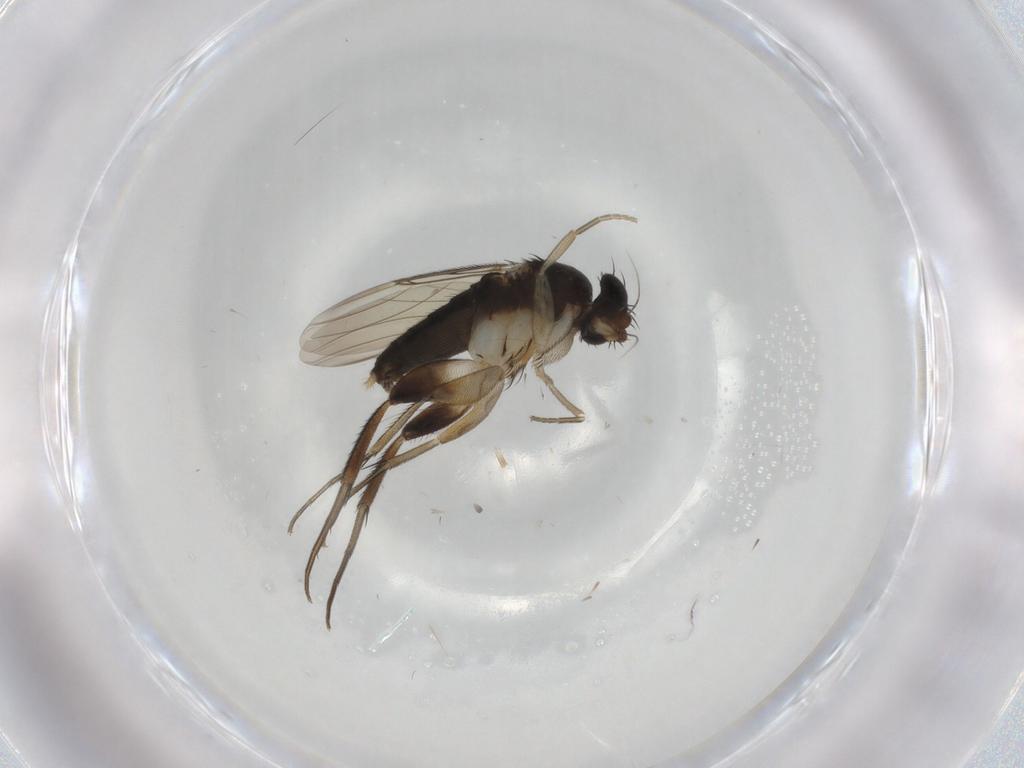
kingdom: Animalia
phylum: Arthropoda
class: Insecta
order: Diptera
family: Phoridae
